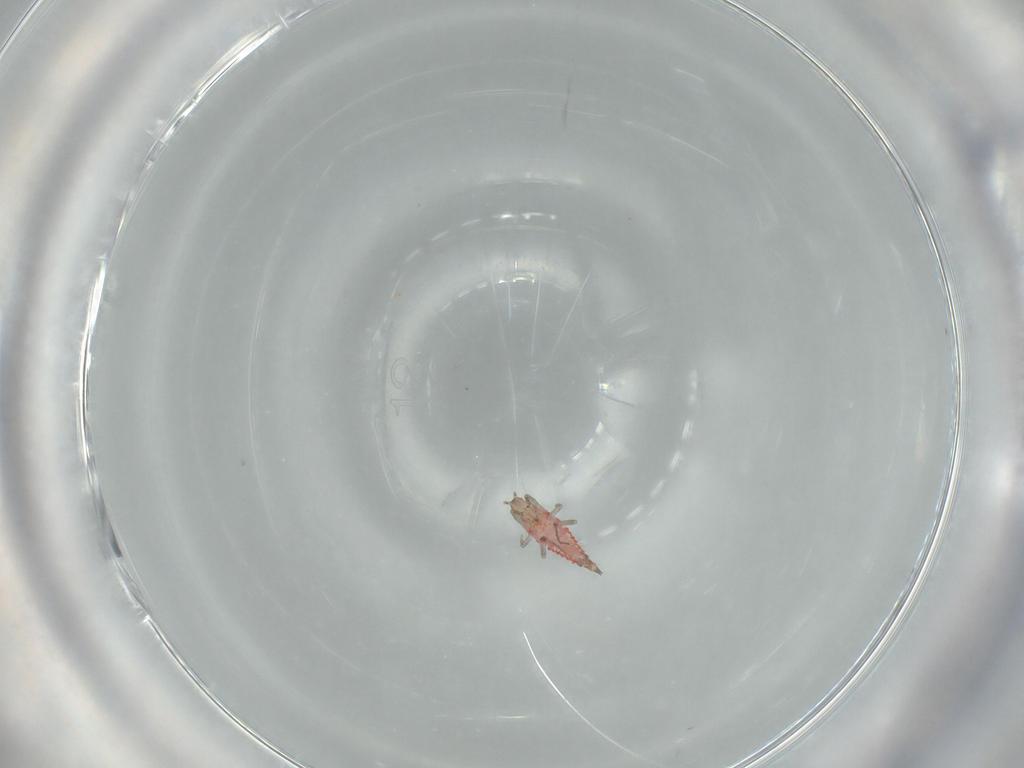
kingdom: Animalia
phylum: Arthropoda
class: Insecta
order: Thysanoptera
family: Phlaeothripidae
